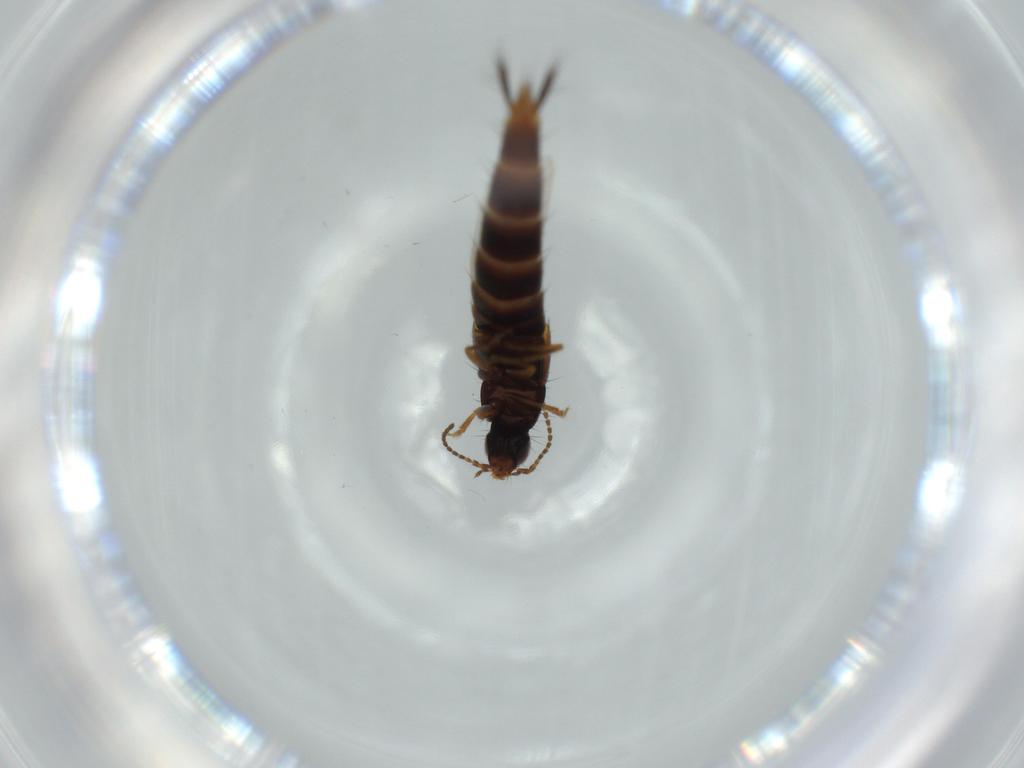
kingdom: Animalia
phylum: Arthropoda
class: Insecta
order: Coleoptera
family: Staphylinidae
